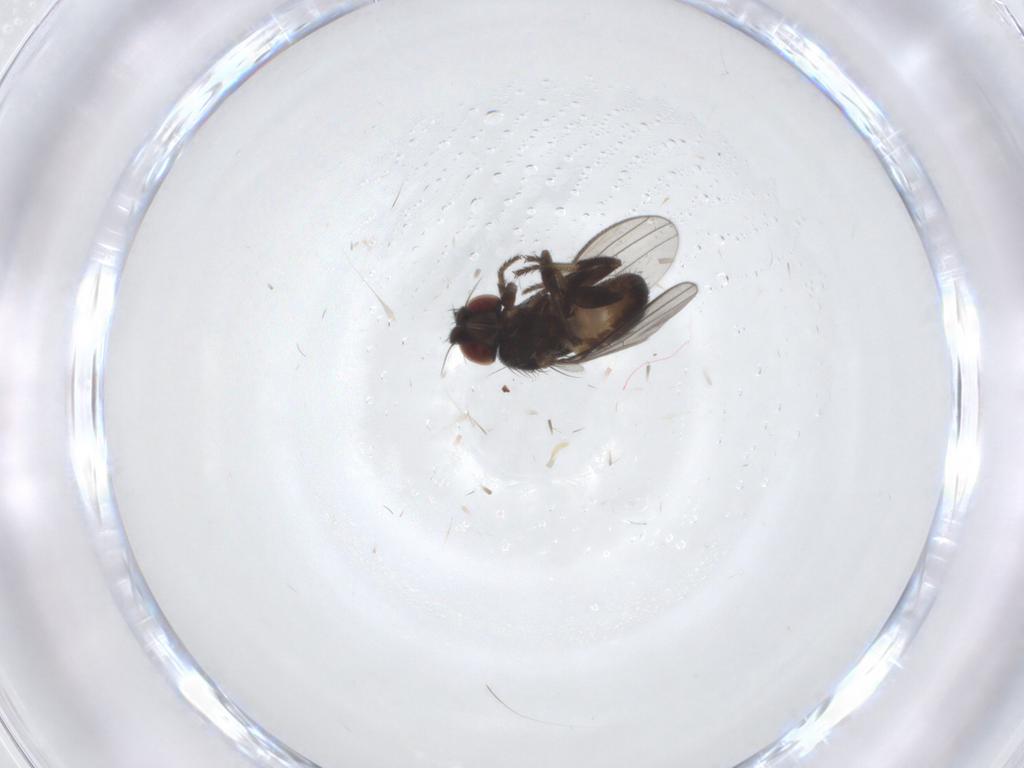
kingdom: Animalia
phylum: Arthropoda
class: Insecta
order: Diptera
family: Milichiidae
